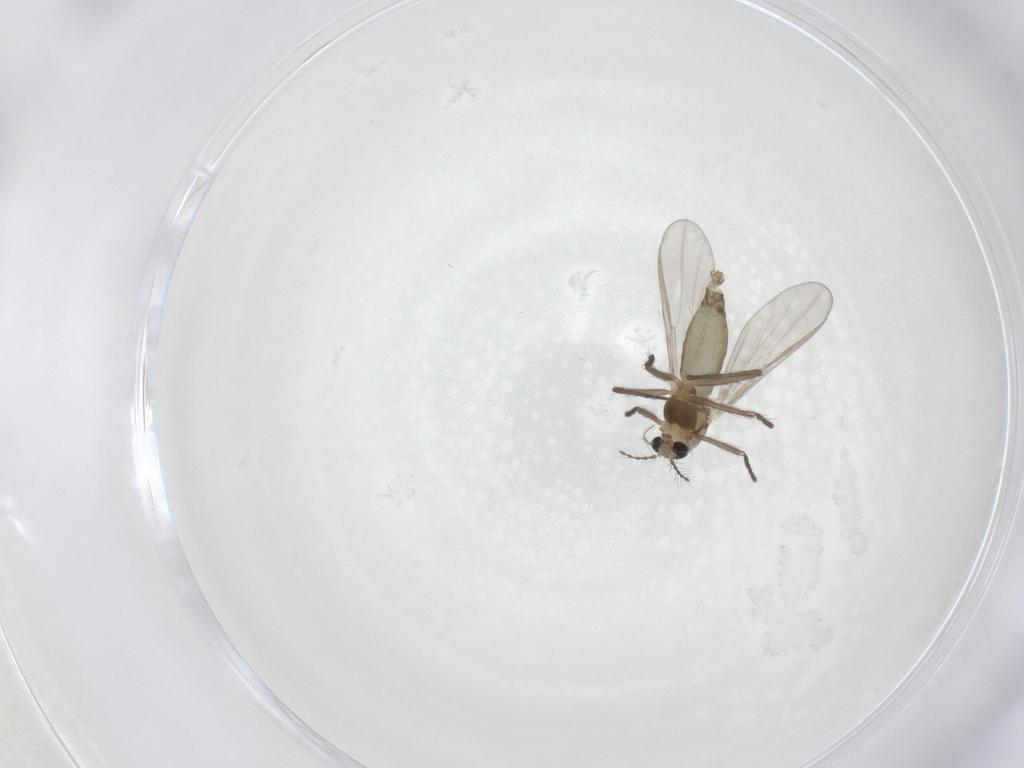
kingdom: Animalia
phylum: Arthropoda
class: Insecta
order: Diptera
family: Chironomidae
